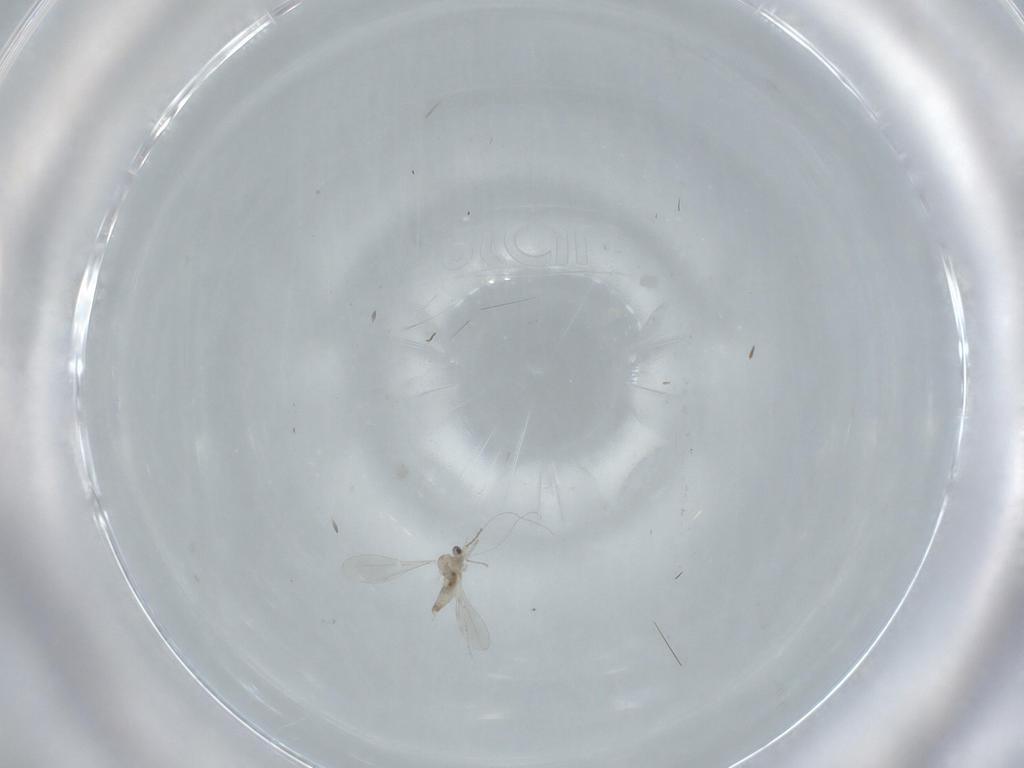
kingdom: Animalia
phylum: Arthropoda
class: Insecta
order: Diptera
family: Cecidomyiidae
